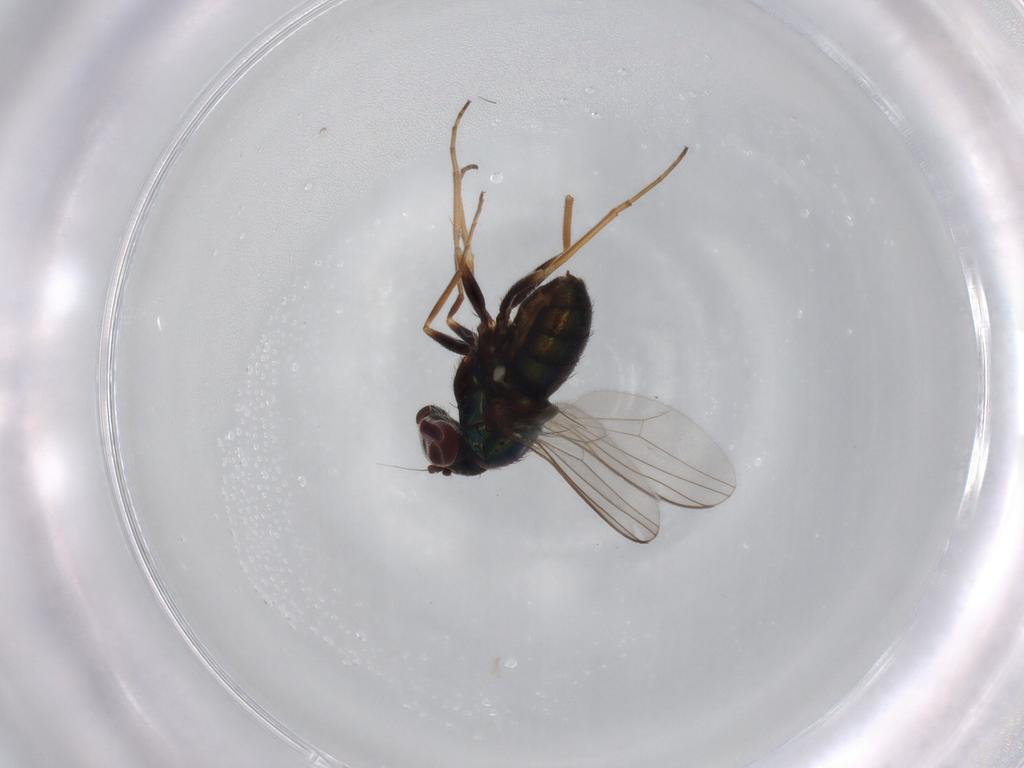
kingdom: Animalia
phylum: Arthropoda
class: Insecta
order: Diptera
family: Dolichopodidae
